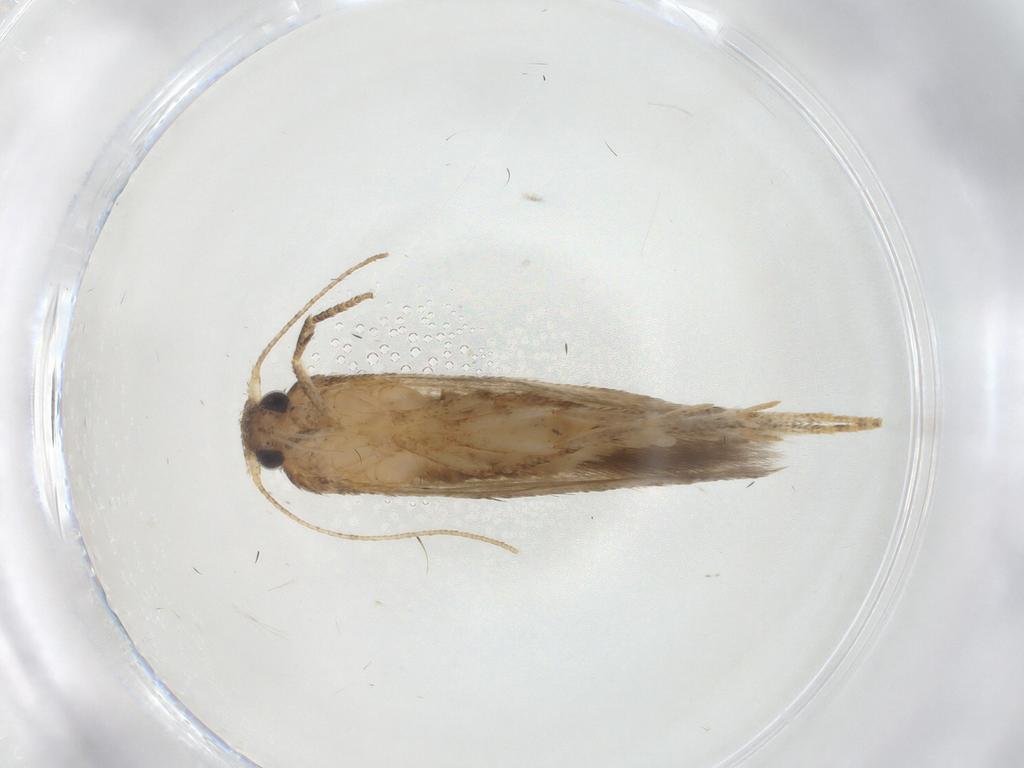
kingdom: Animalia
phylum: Arthropoda
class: Insecta
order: Lepidoptera
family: Blastobasidae
